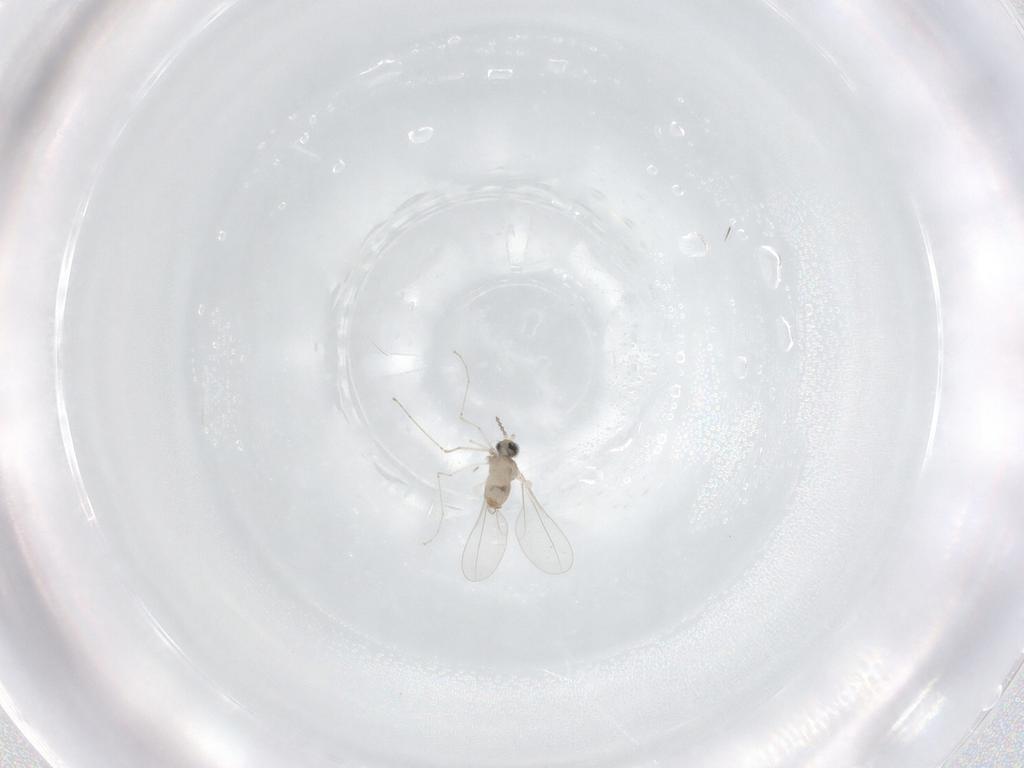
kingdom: Animalia
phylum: Arthropoda
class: Insecta
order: Diptera
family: Cecidomyiidae
